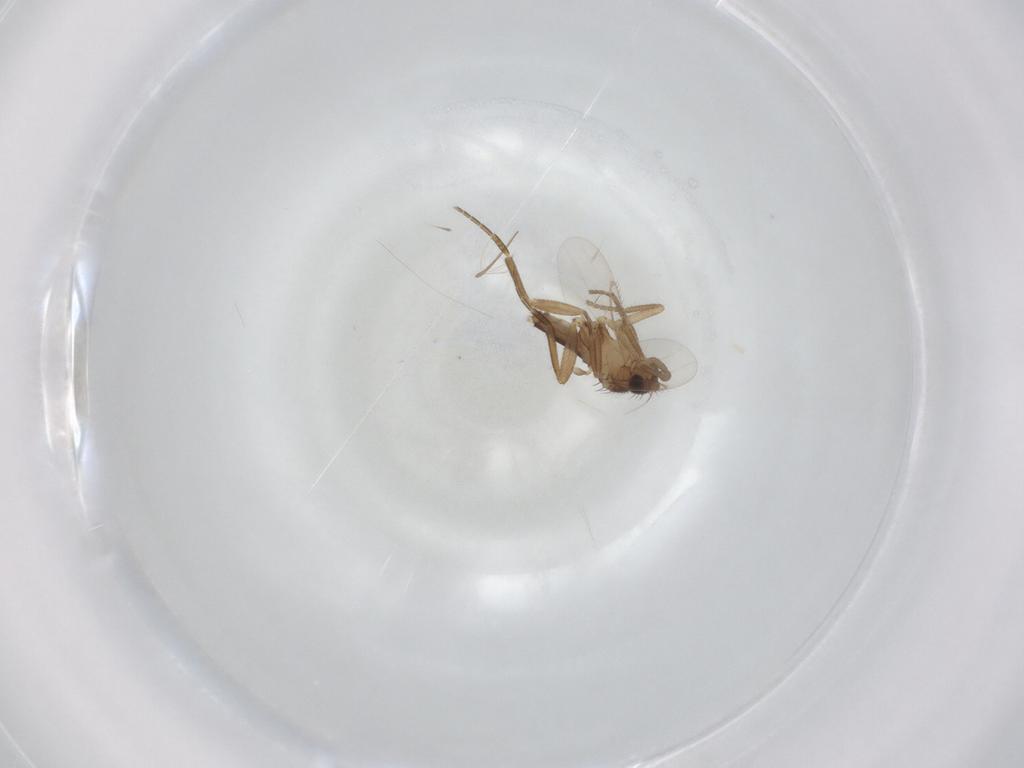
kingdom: Animalia
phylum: Arthropoda
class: Insecta
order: Diptera
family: Phoridae
